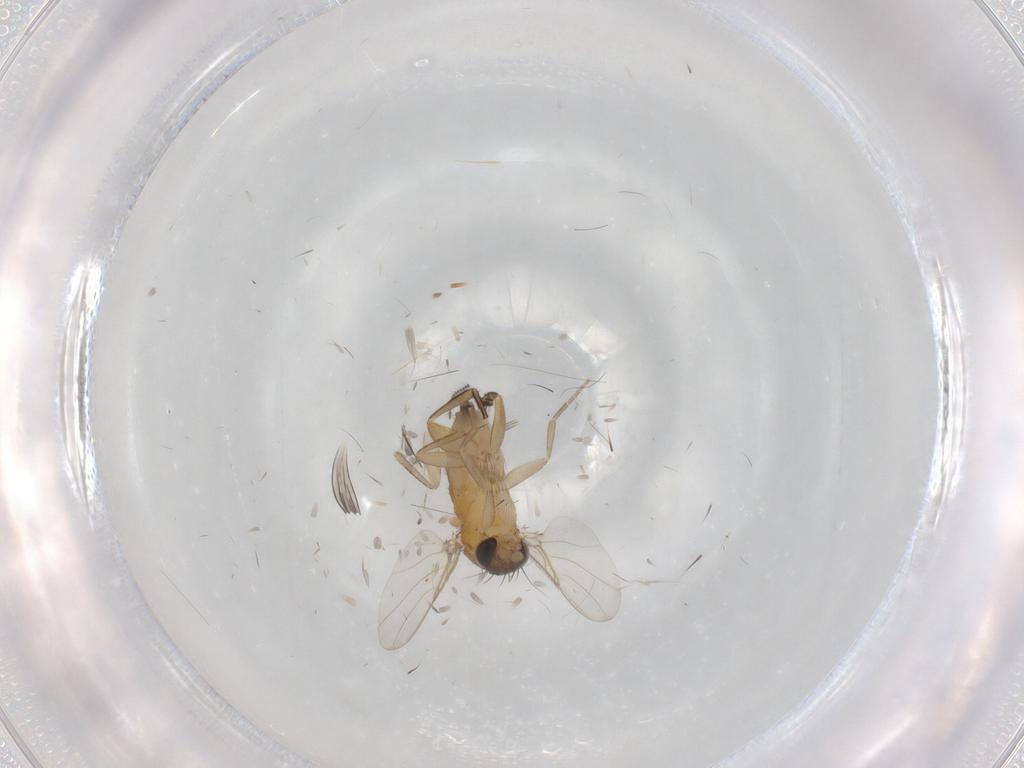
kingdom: Animalia
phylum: Arthropoda
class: Insecta
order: Diptera
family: Phoridae
